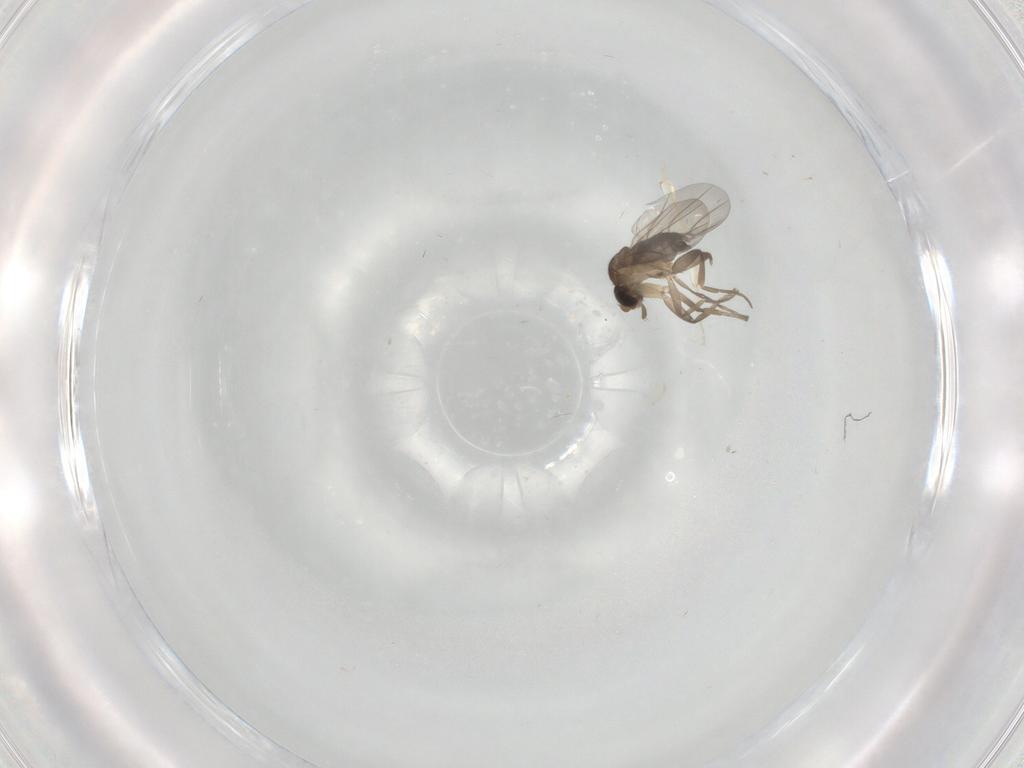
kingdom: Animalia
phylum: Arthropoda
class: Insecta
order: Diptera
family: Phoridae
